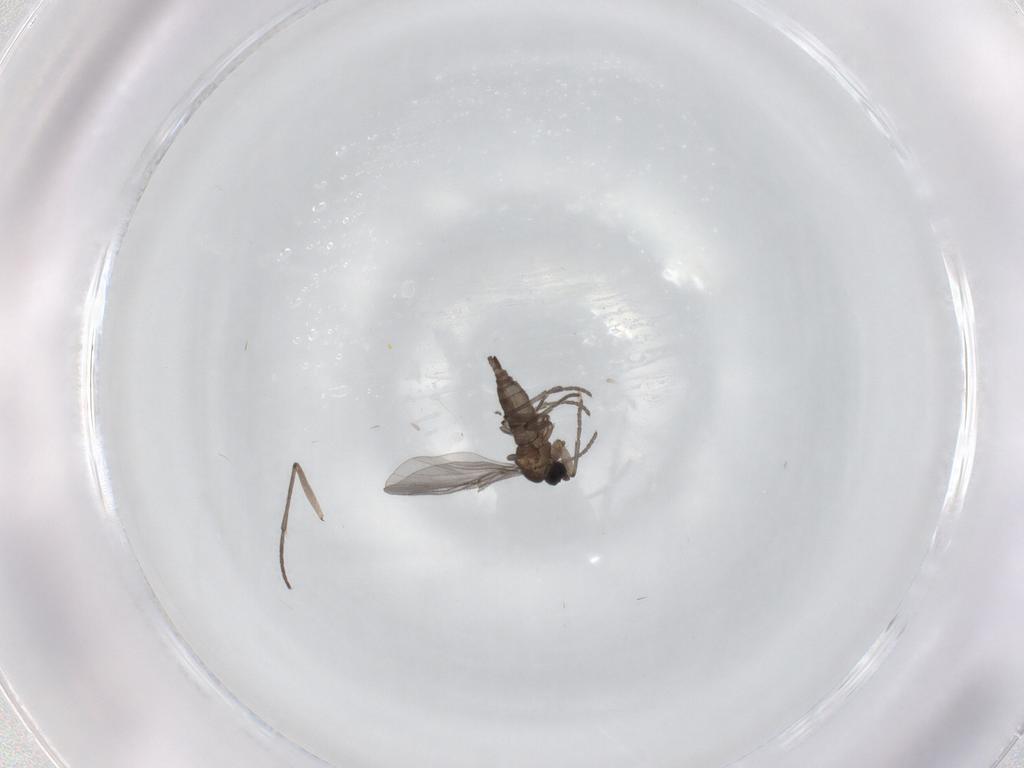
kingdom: Animalia
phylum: Arthropoda
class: Insecta
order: Diptera
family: Sciaridae
